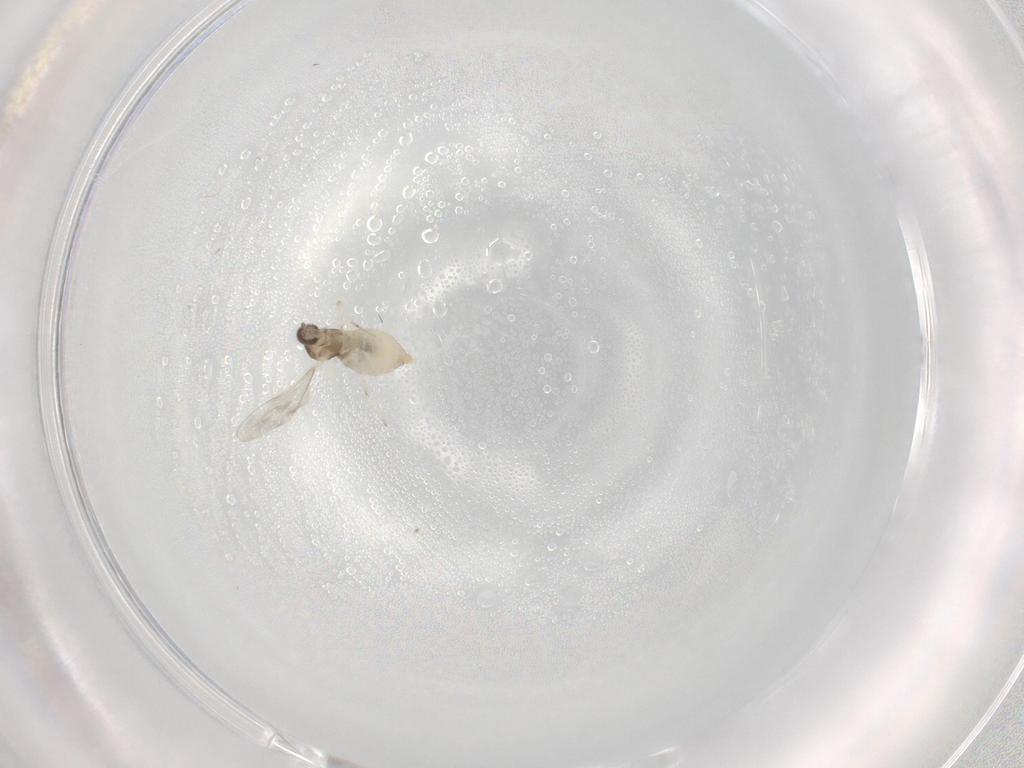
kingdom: Animalia
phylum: Arthropoda
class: Insecta
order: Diptera
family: Cecidomyiidae
